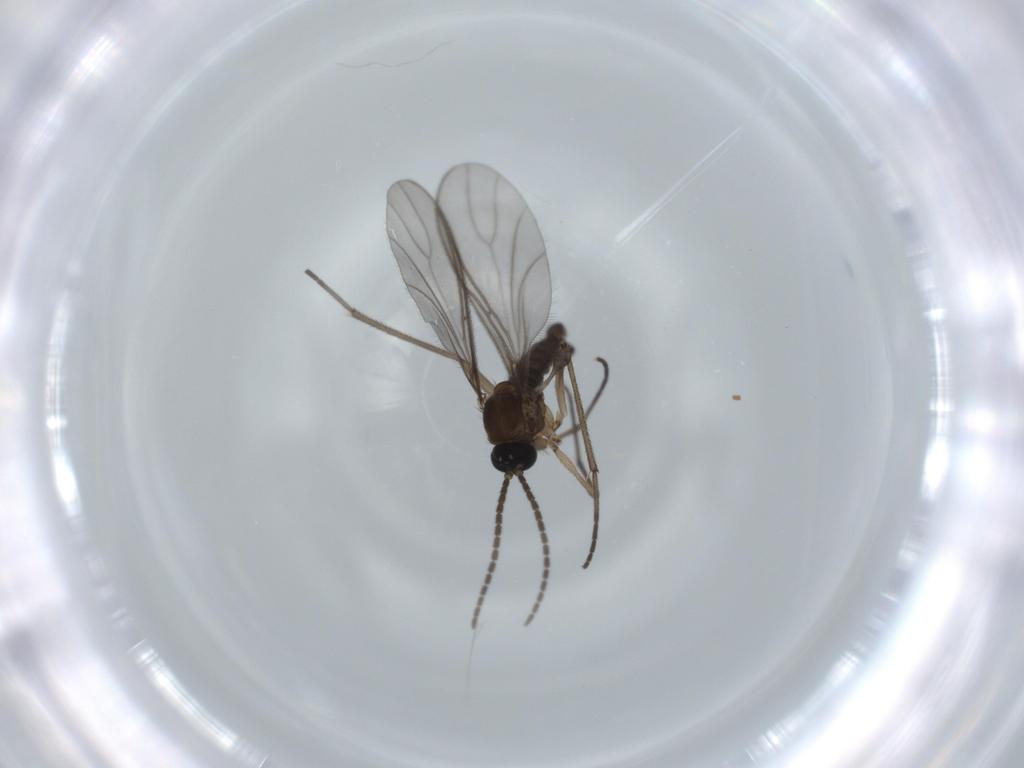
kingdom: Animalia
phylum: Arthropoda
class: Insecta
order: Diptera
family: Sciaridae
